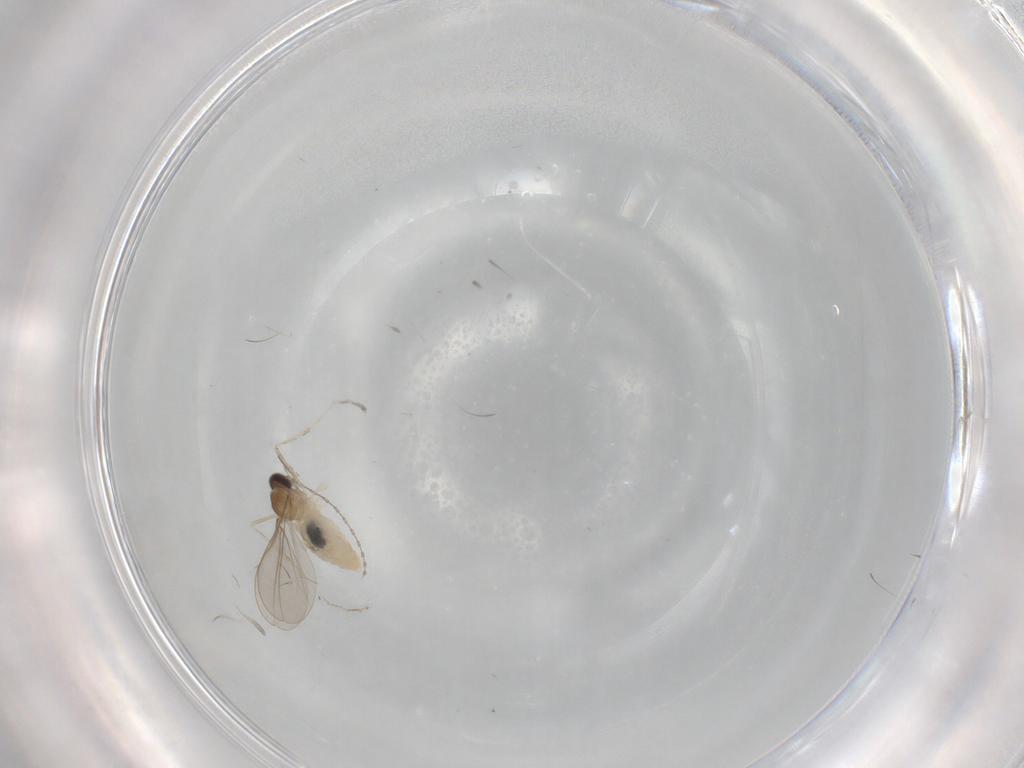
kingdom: Animalia
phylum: Arthropoda
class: Insecta
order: Diptera
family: Cecidomyiidae
